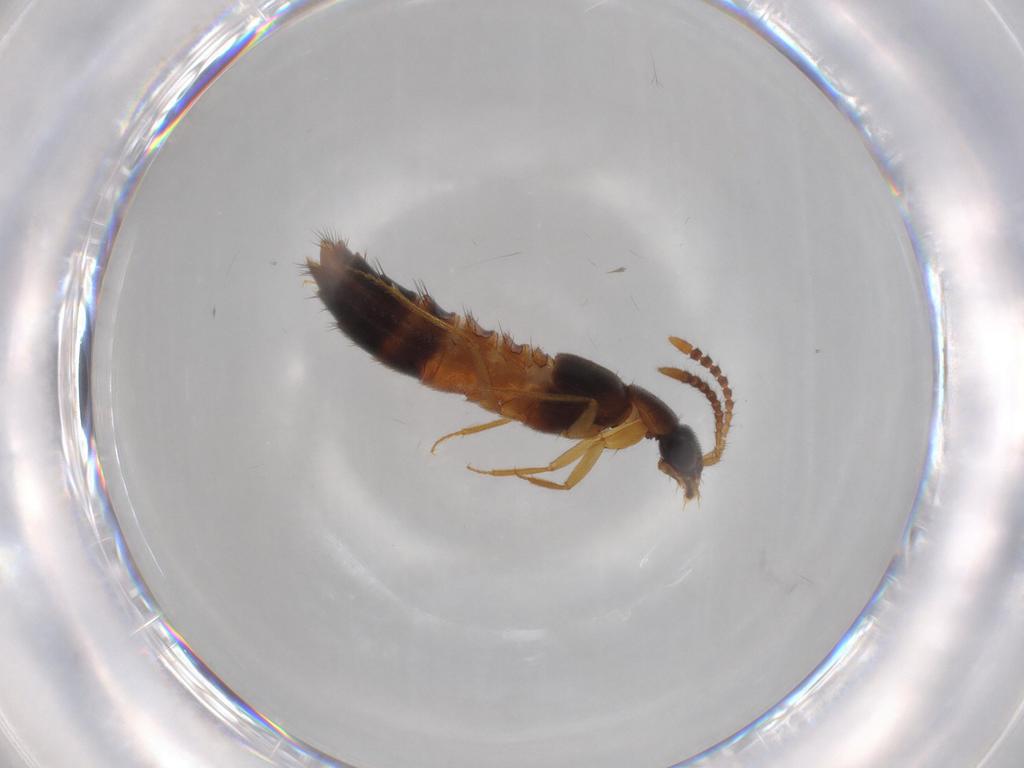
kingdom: Animalia
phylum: Arthropoda
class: Insecta
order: Coleoptera
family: Staphylinidae
